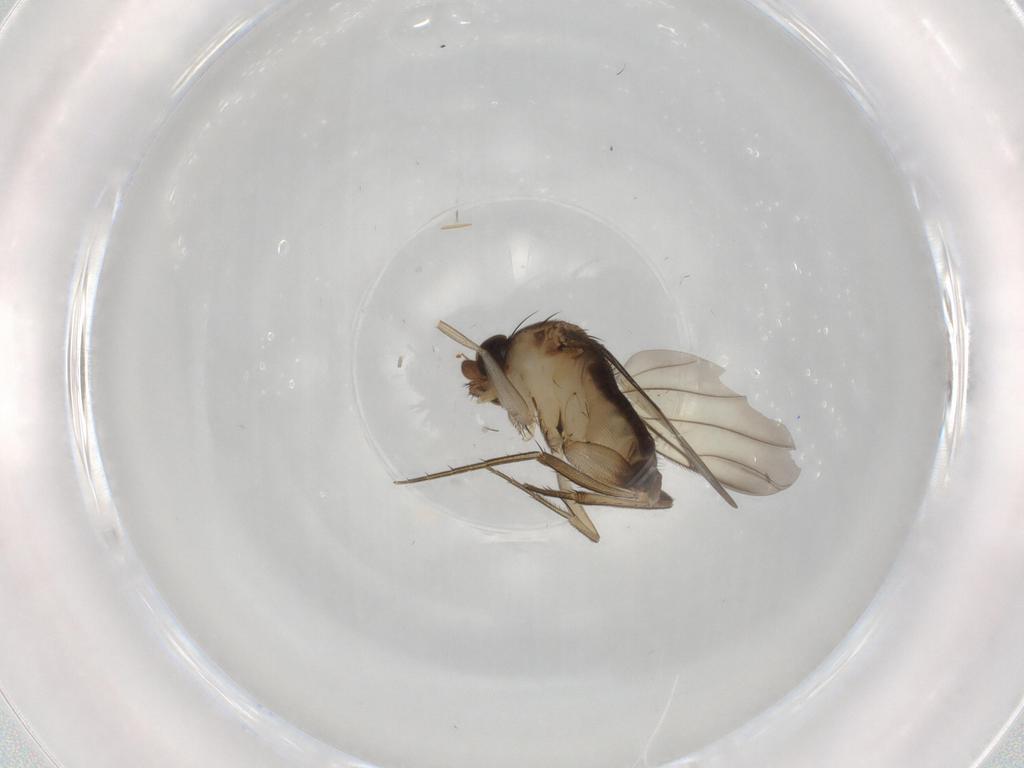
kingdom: Animalia
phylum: Arthropoda
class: Insecta
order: Diptera
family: Phoridae
